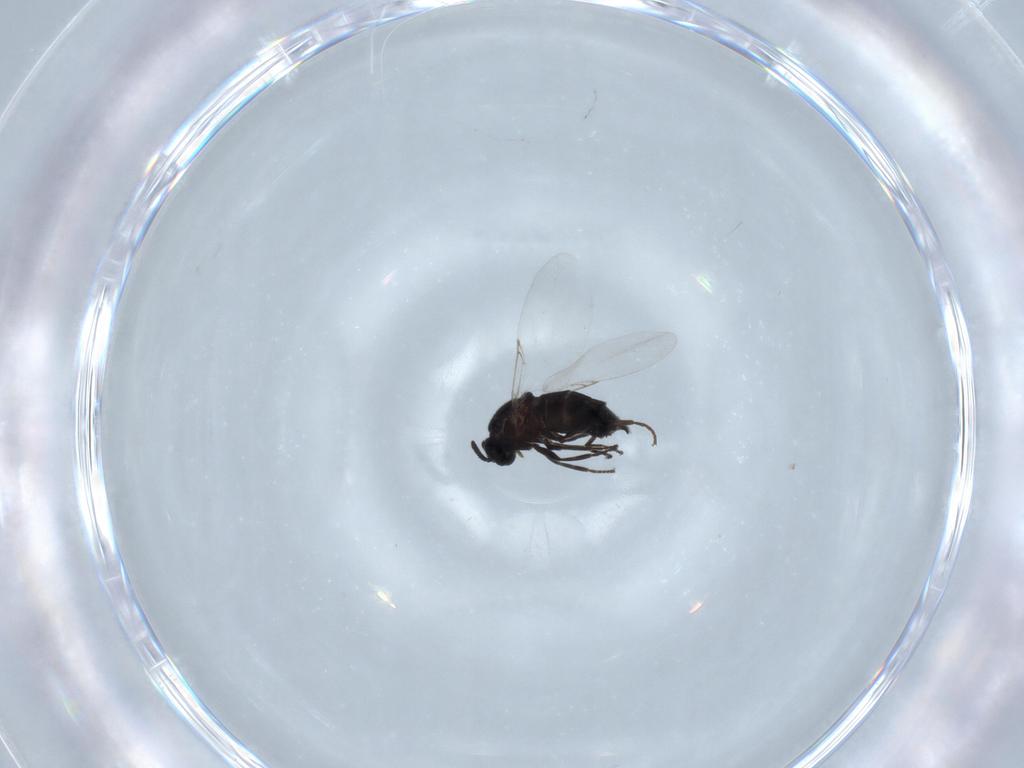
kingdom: Animalia
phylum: Arthropoda
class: Insecta
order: Diptera
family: Scatopsidae
